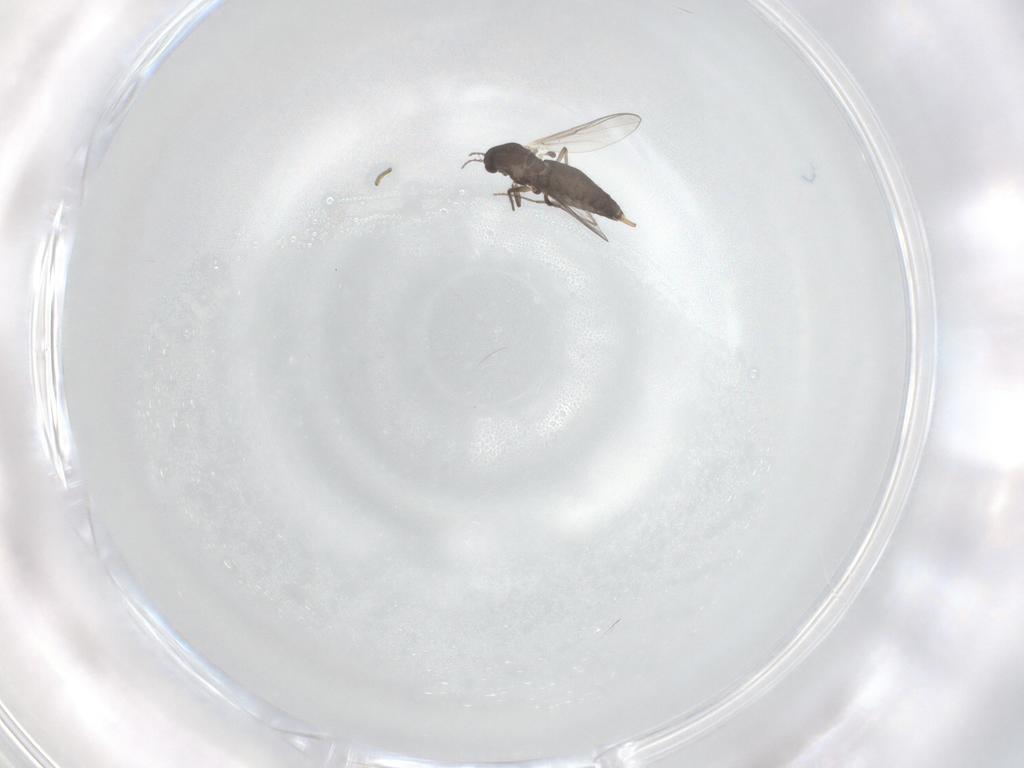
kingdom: Animalia
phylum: Arthropoda
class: Insecta
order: Diptera
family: Chironomidae
